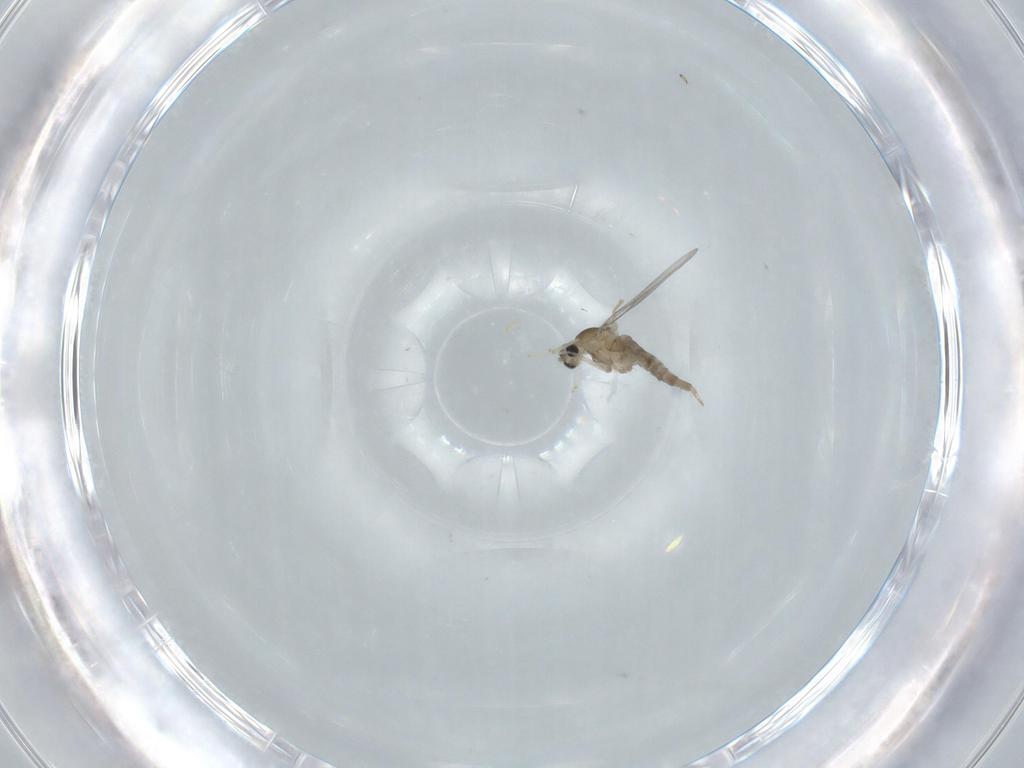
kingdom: Animalia
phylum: Arthropoda
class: Insecta
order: Diptera
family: Cecidomyiidae
